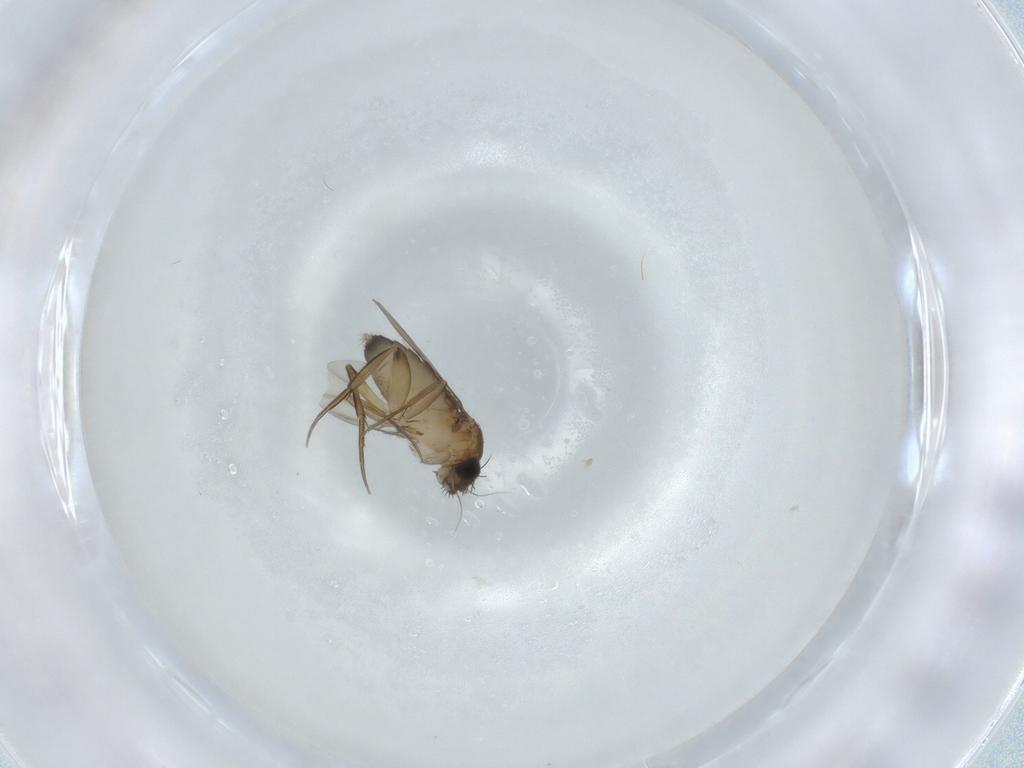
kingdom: Animalia
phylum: Arthropoda
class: Insecta
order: Diptera
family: Phoridae
